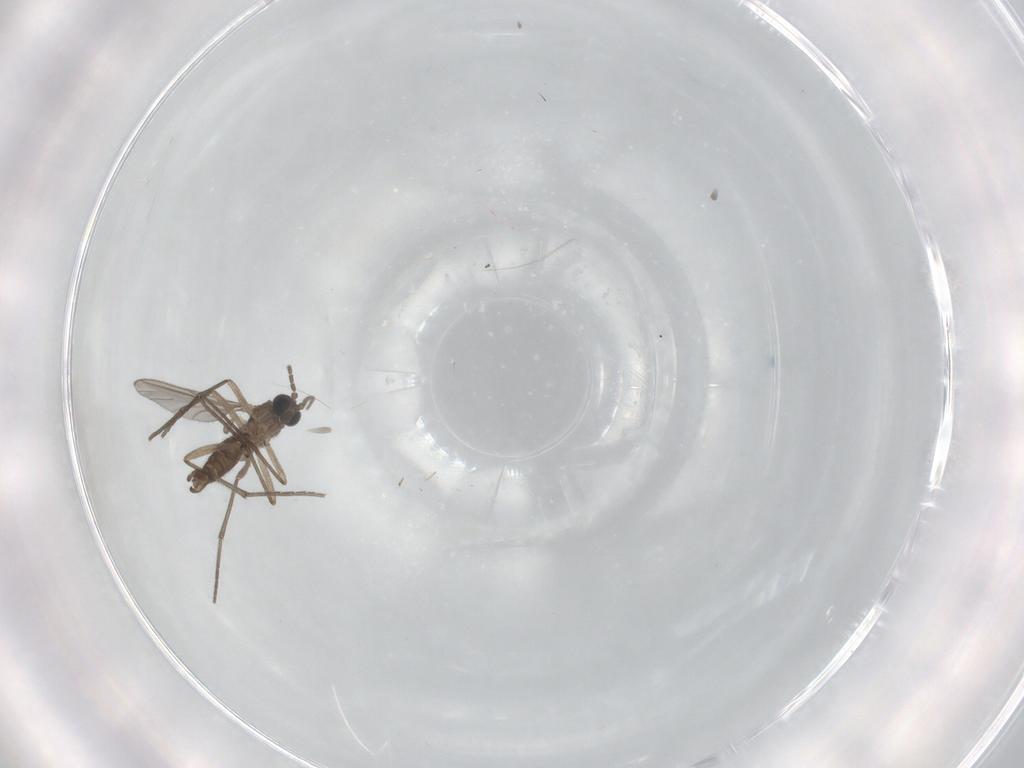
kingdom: Animalia
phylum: Arthropoda
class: Insecta
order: Diptera
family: Sciaridae
